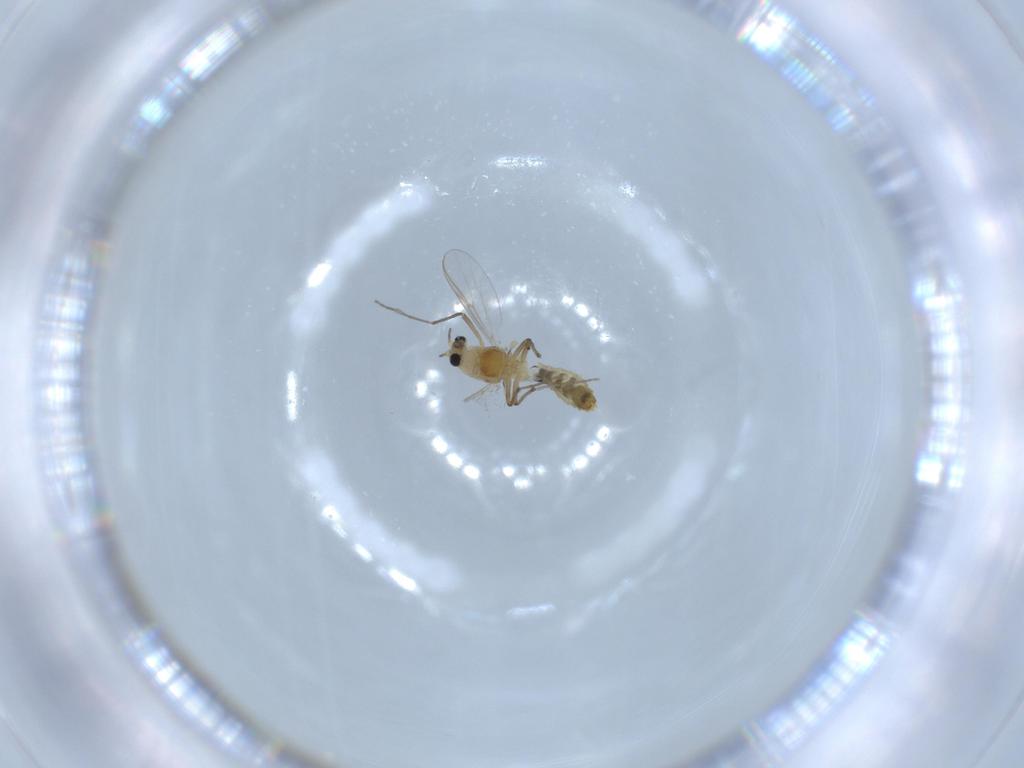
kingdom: Animalia
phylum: Arthropoda
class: Insecta
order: Diptera
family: Chironomidae
